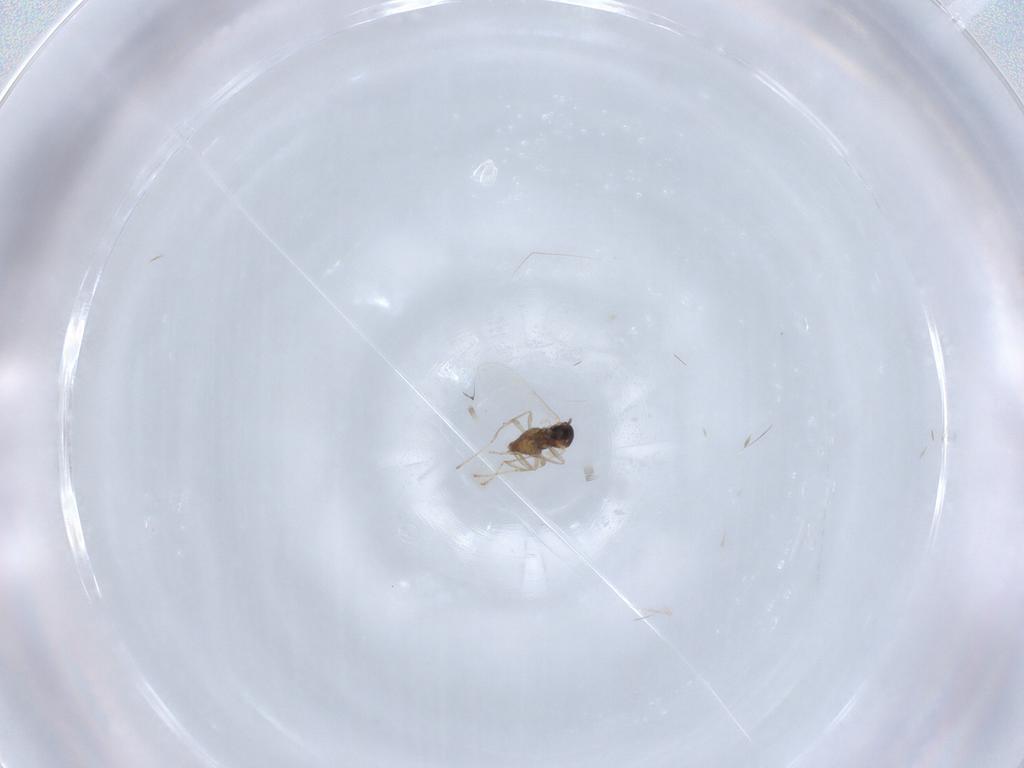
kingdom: Animalia
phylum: Arthropoda
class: Insecta
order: Diptera
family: Cecidomyiidae
